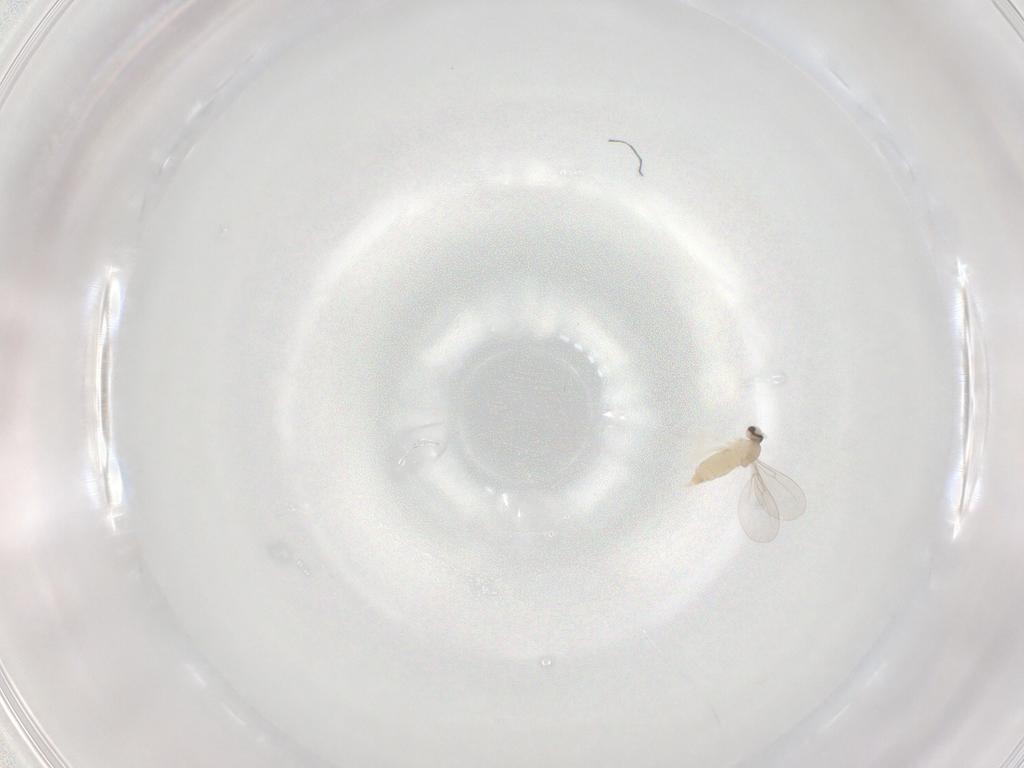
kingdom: Animalia
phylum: Arthropoda
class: Insecta
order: Diptera
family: Cecidomyiidae
